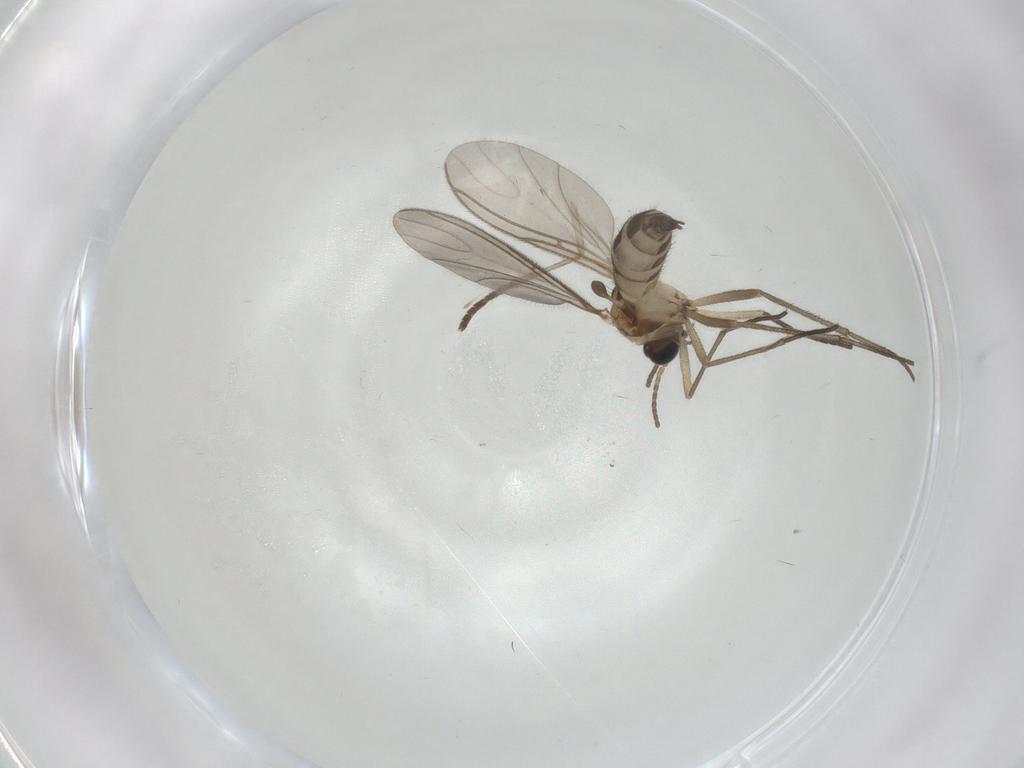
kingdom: Animalia
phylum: Arthropoda
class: Insecta
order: Diptera
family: Sciaridae
